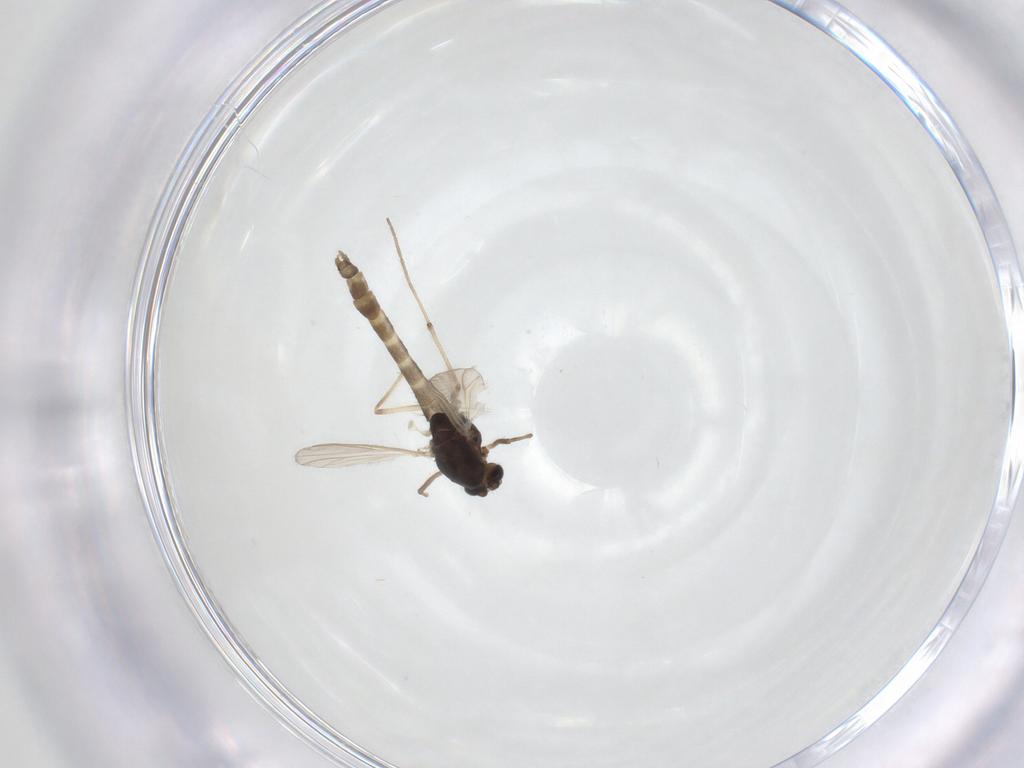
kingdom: Animalia
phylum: Arthropoda
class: Insecta
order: Diptera
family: Chironomidae
